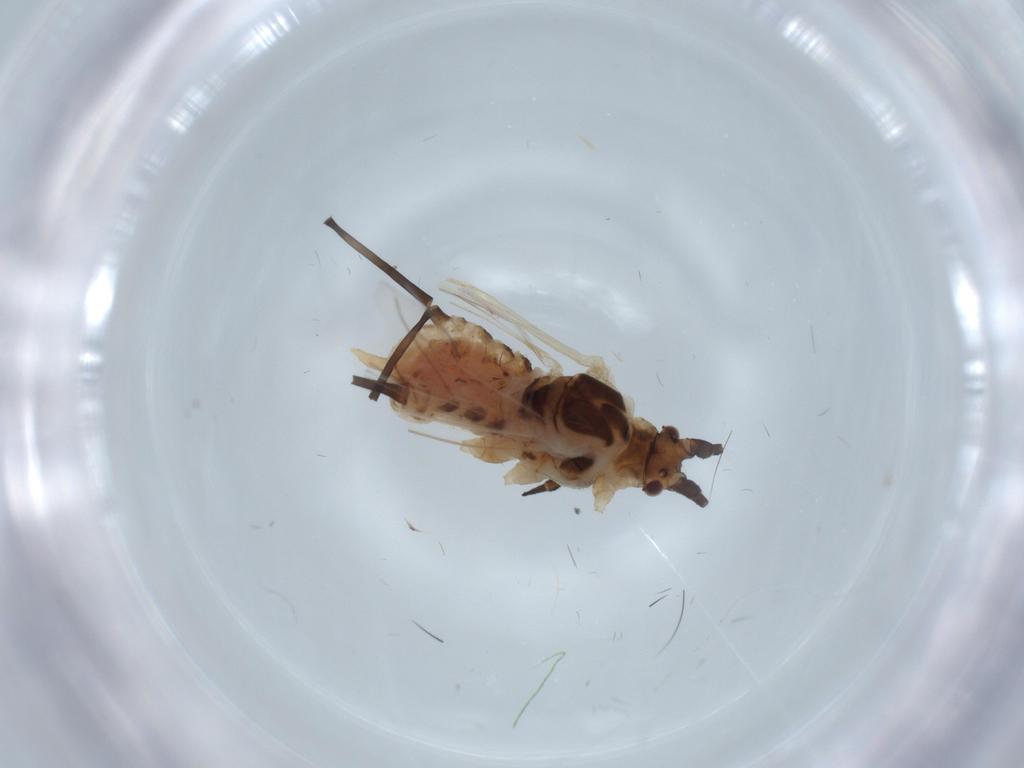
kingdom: Animalia
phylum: Arthropoda
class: Insecta
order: Hemiptera
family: Aphididae
